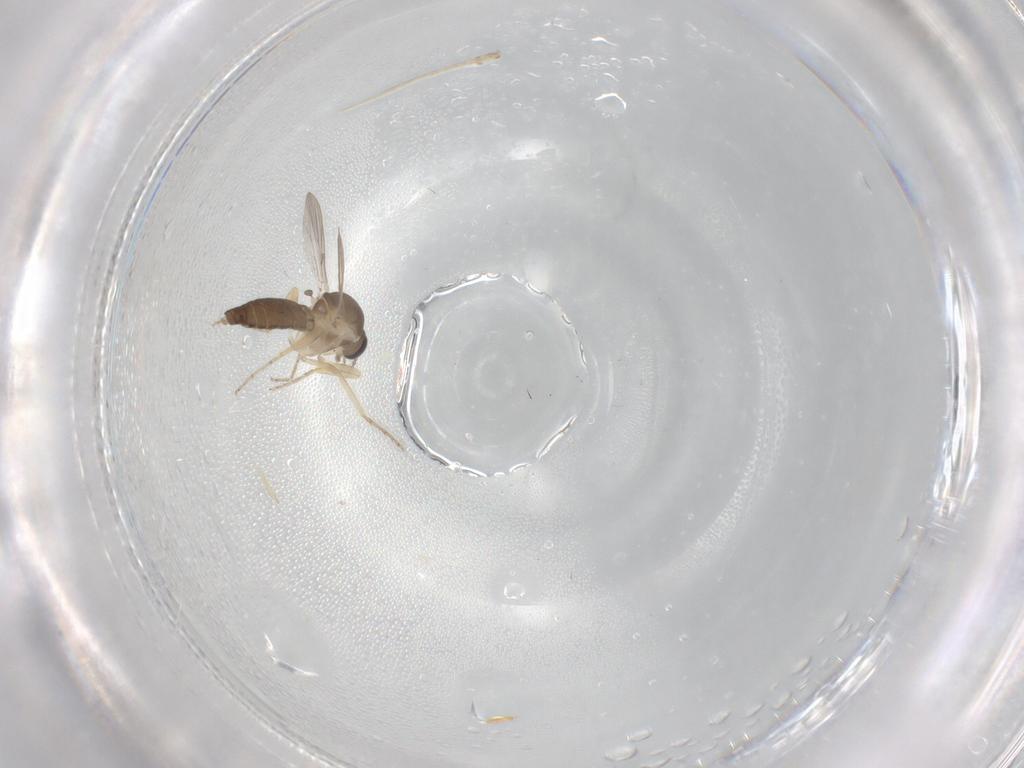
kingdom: Animalia
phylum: Arthropoda
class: Insecta
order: Diptera
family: Ceratopogonidae
